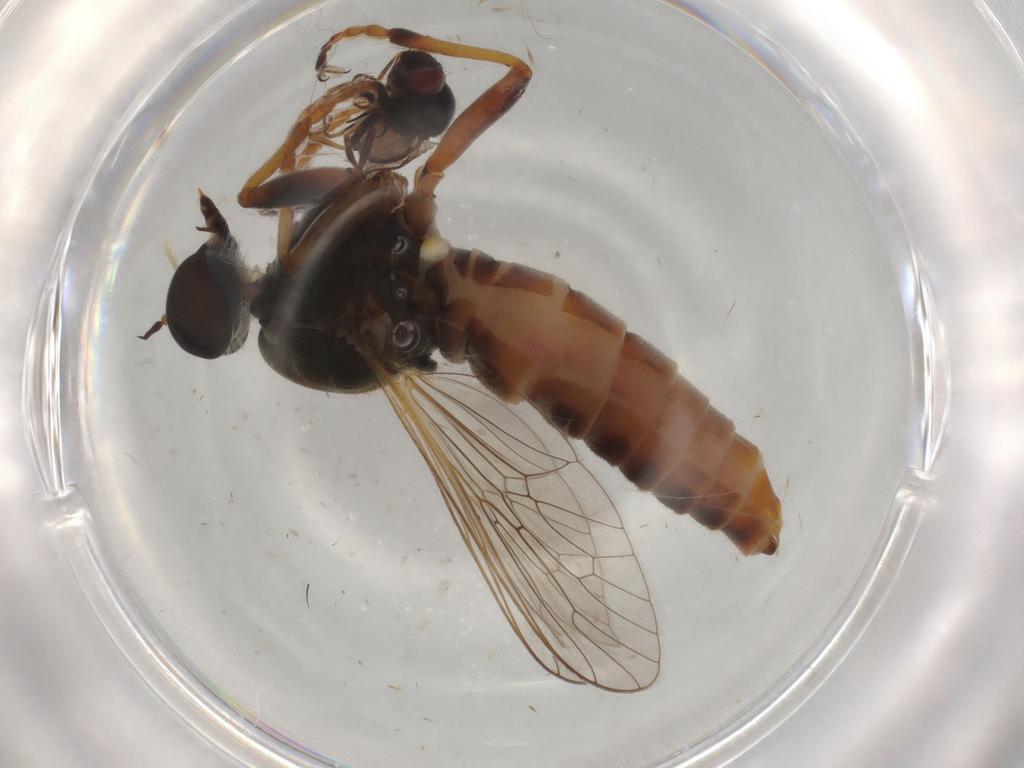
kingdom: Animalia
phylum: Arthropoda
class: Insecta
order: Diptera
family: Asilidae
